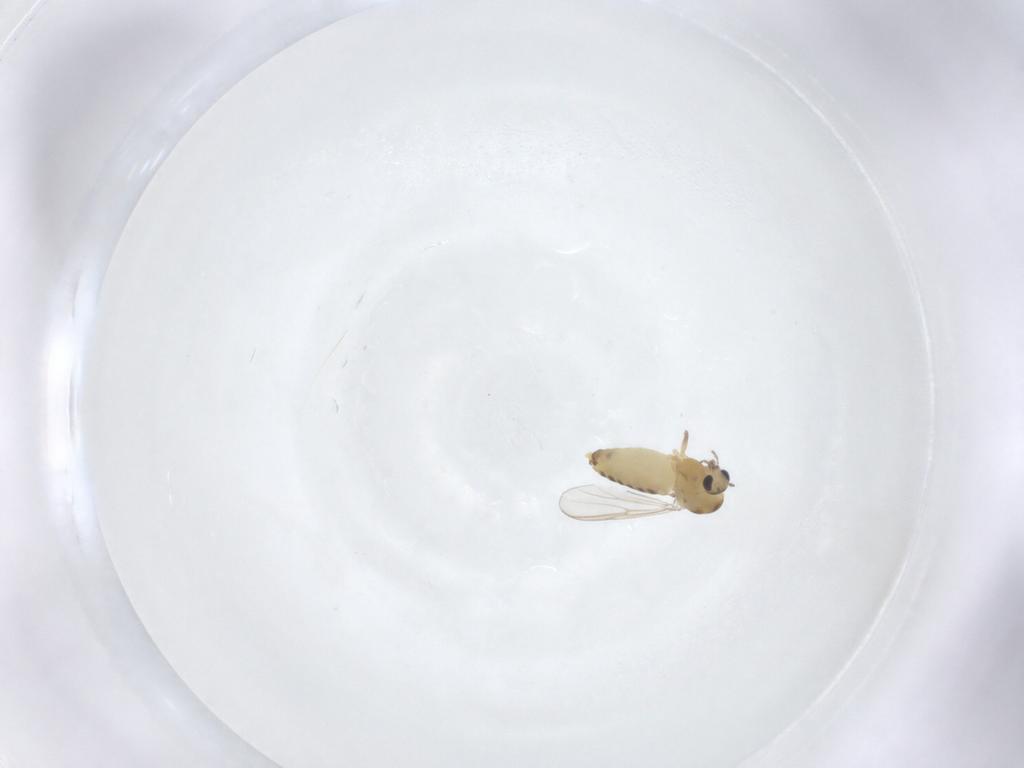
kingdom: Animalia
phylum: Arthropoda
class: Insecta
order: Diptera
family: Chironomidae
